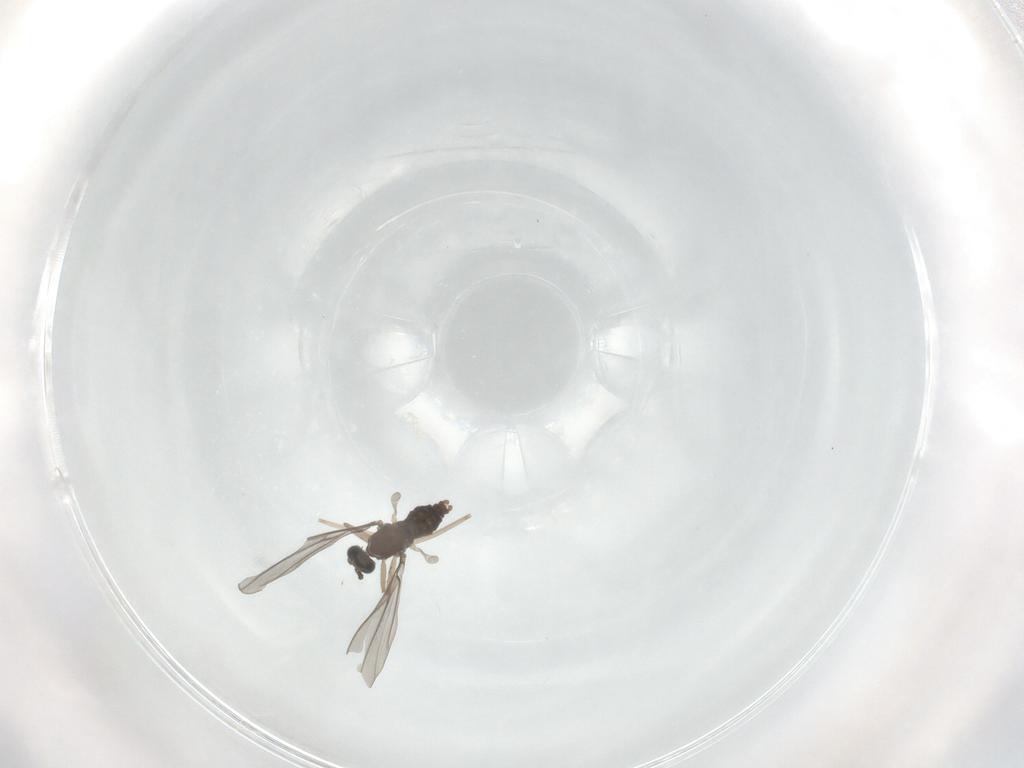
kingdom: Animalia
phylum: Arthropoda
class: Insecta
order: Diptera
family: Cecidomyiidae
